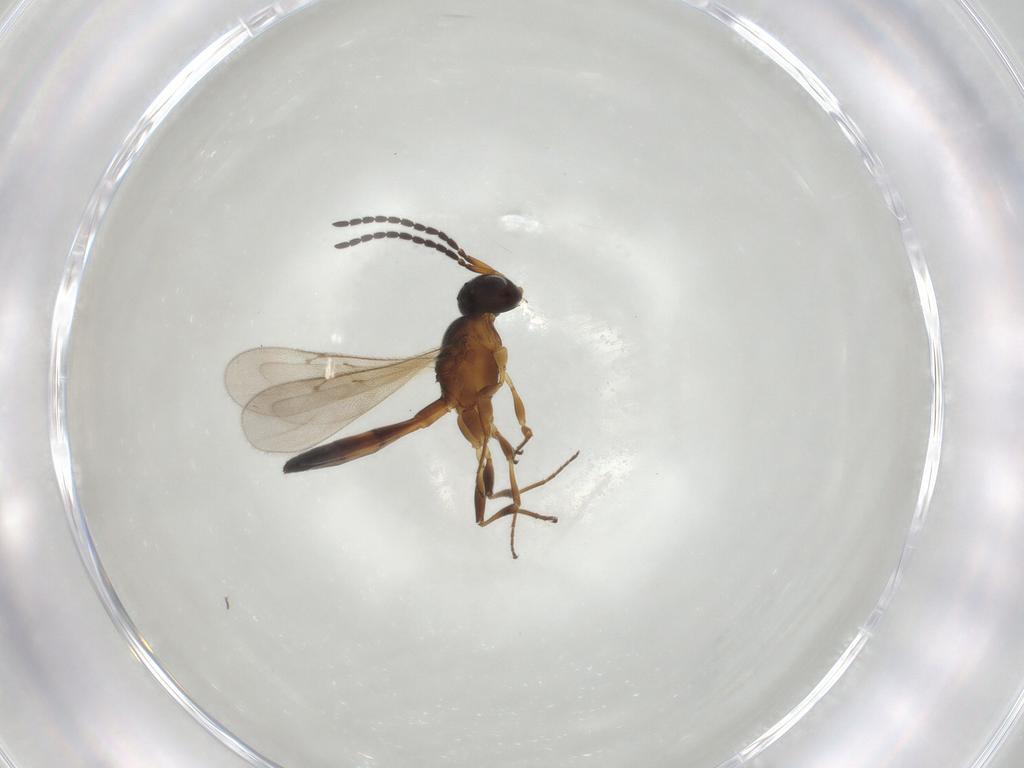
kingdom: Animalia
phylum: Arthropoda
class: Insecta
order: Hymenoptera
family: Scelionidae
